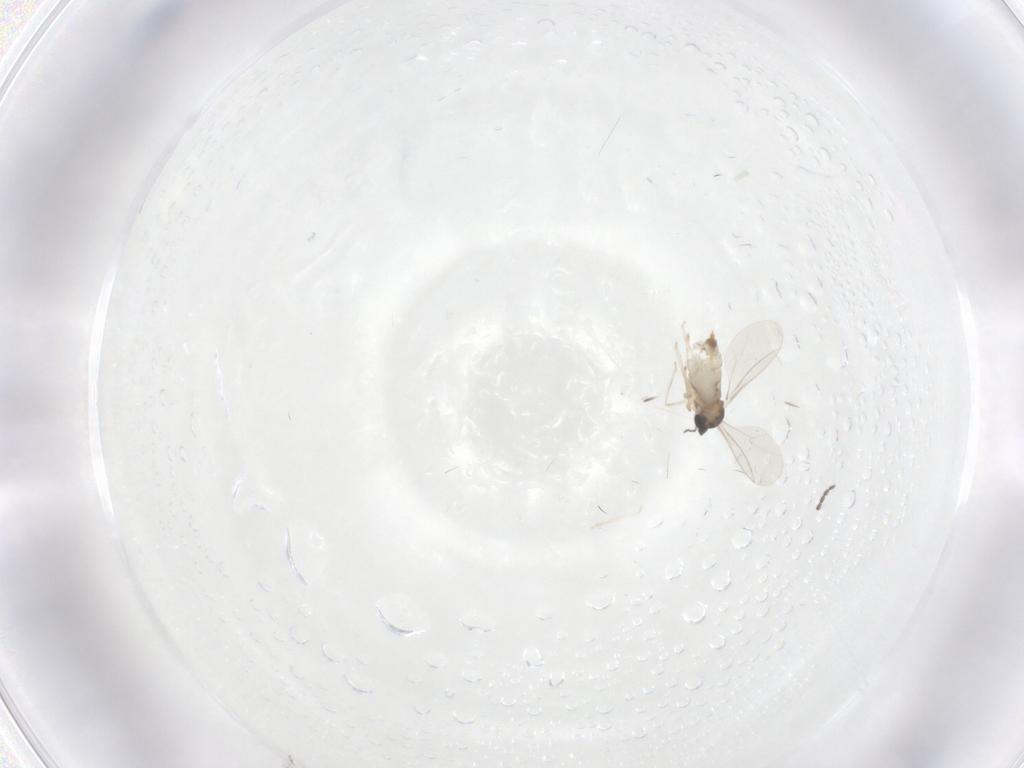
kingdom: Animalia
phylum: Arthropoda
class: Insecta
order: Diptera
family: Cecidomyiidae
